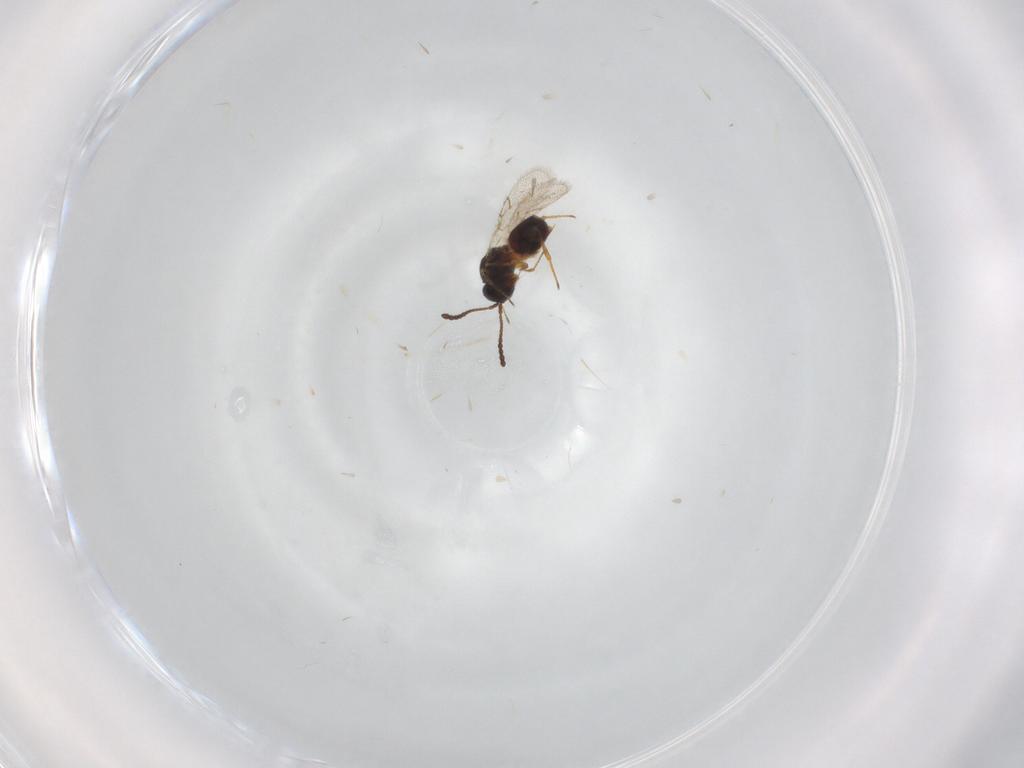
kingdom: Animalia
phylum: Arthropoda
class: Insecta
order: Hymenoptera
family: Figitidae
